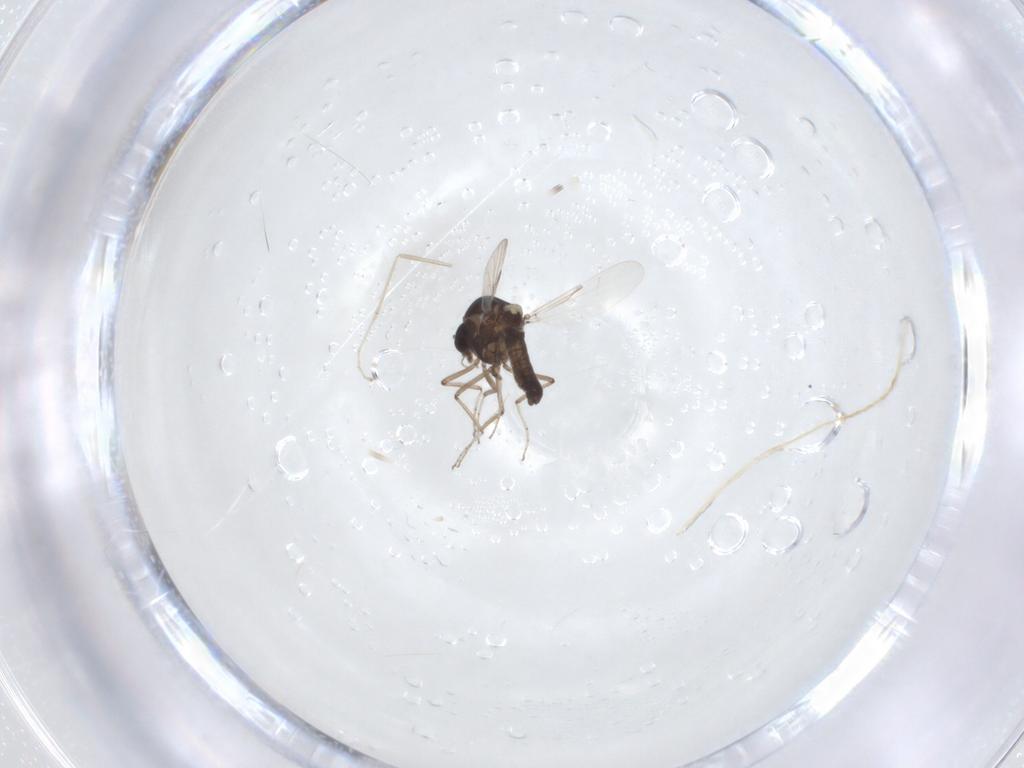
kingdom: Animalia
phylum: Arthropoda
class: Insecta
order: Diptera
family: Ceratopogonidae
